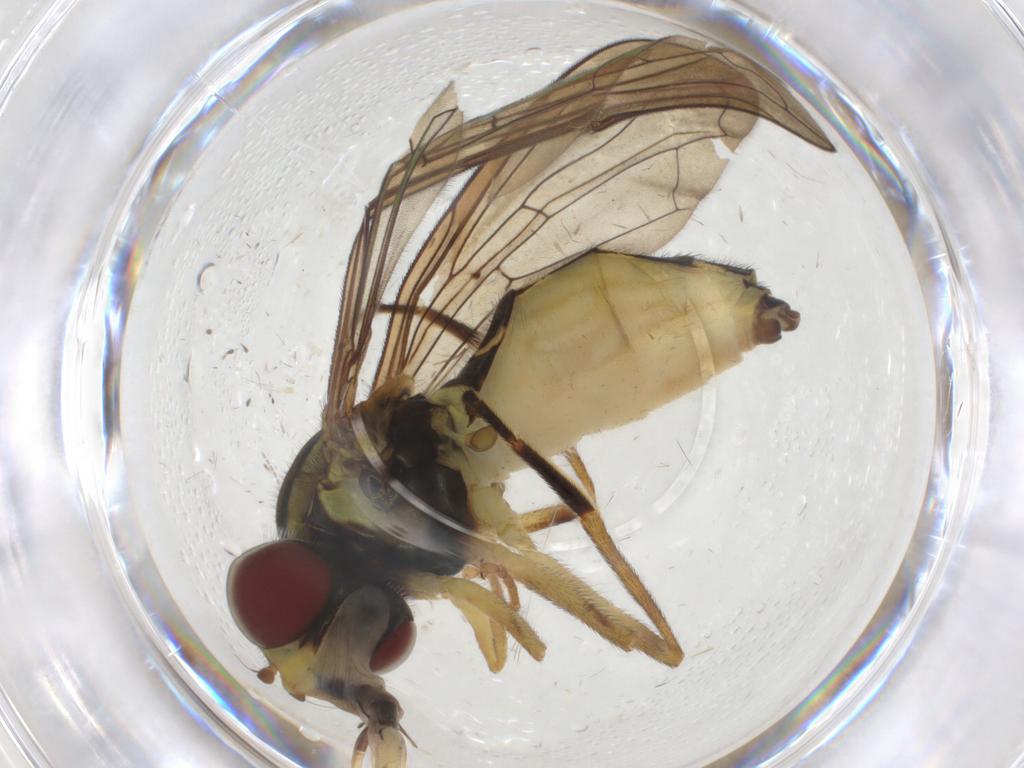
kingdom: Animalia
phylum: Arthropoda
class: Insecta
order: Diptera
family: Syrphidae
